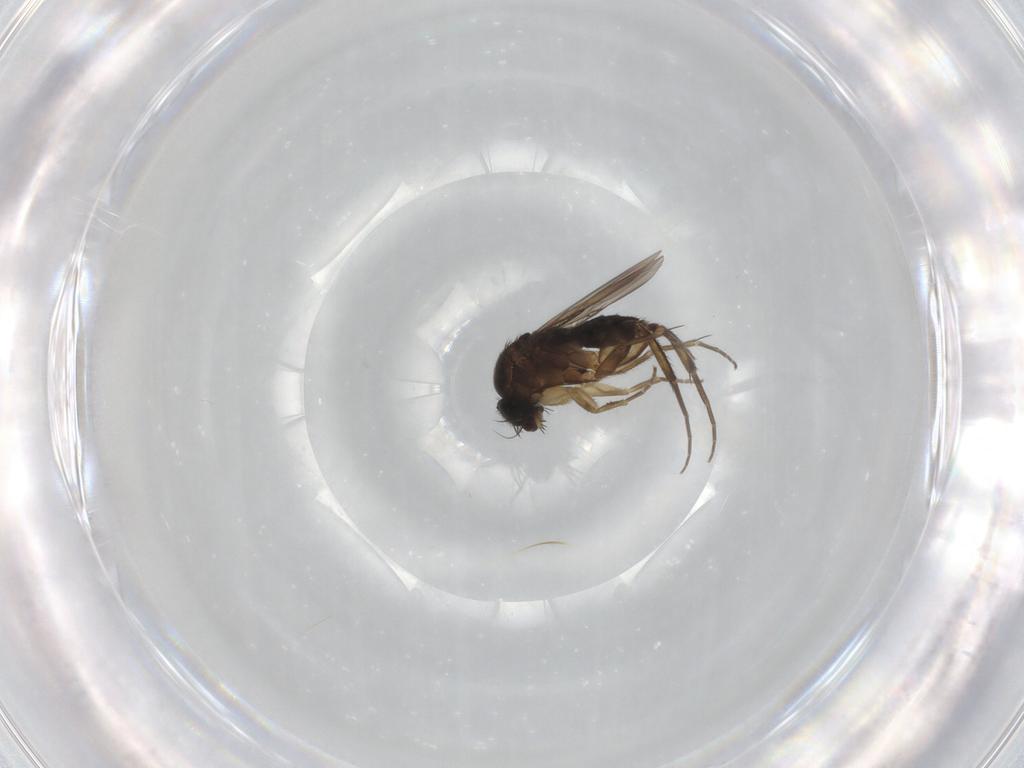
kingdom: Animalia
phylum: Arthropoda
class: Insecta
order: Diptera
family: Phoridae
